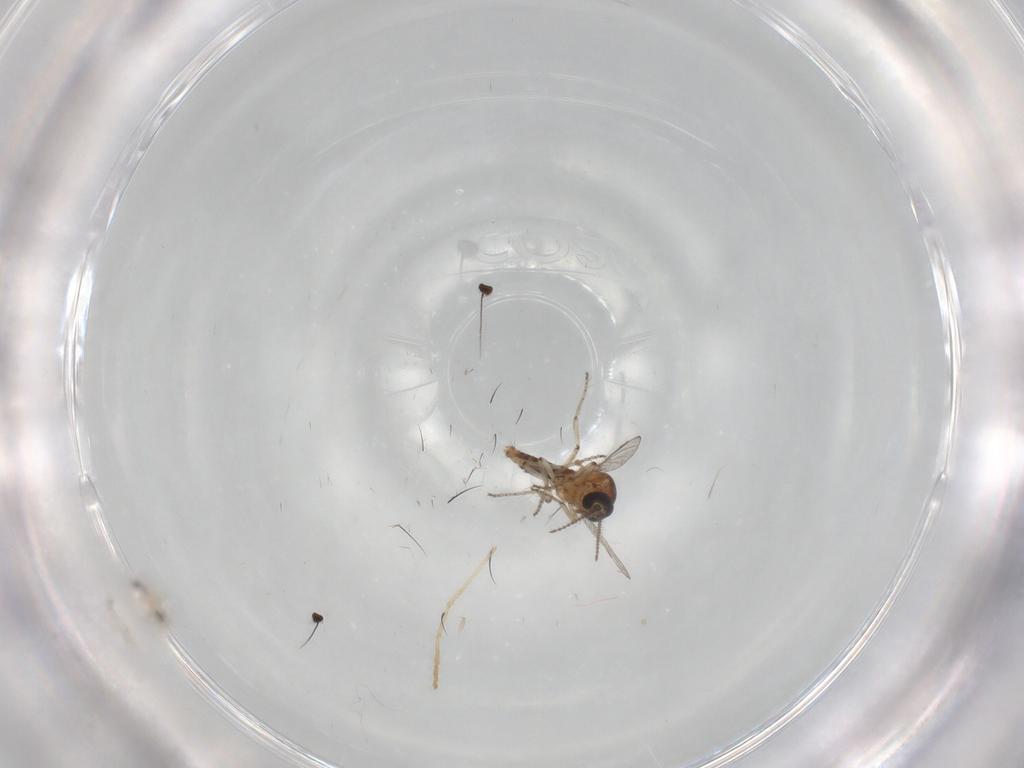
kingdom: Animalia
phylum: Arthropoda
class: Insecta
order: Diptera
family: Ceratopogonidae
